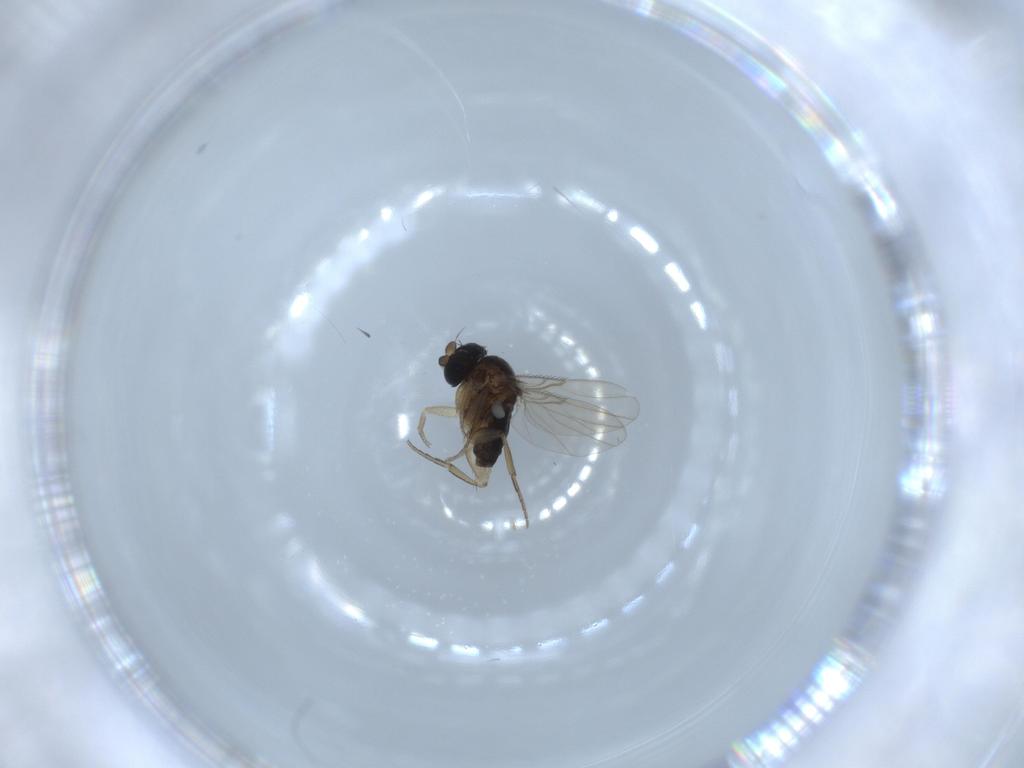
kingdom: Animalia
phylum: Arthropoda
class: Insecta
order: Diptera
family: Phoridae
